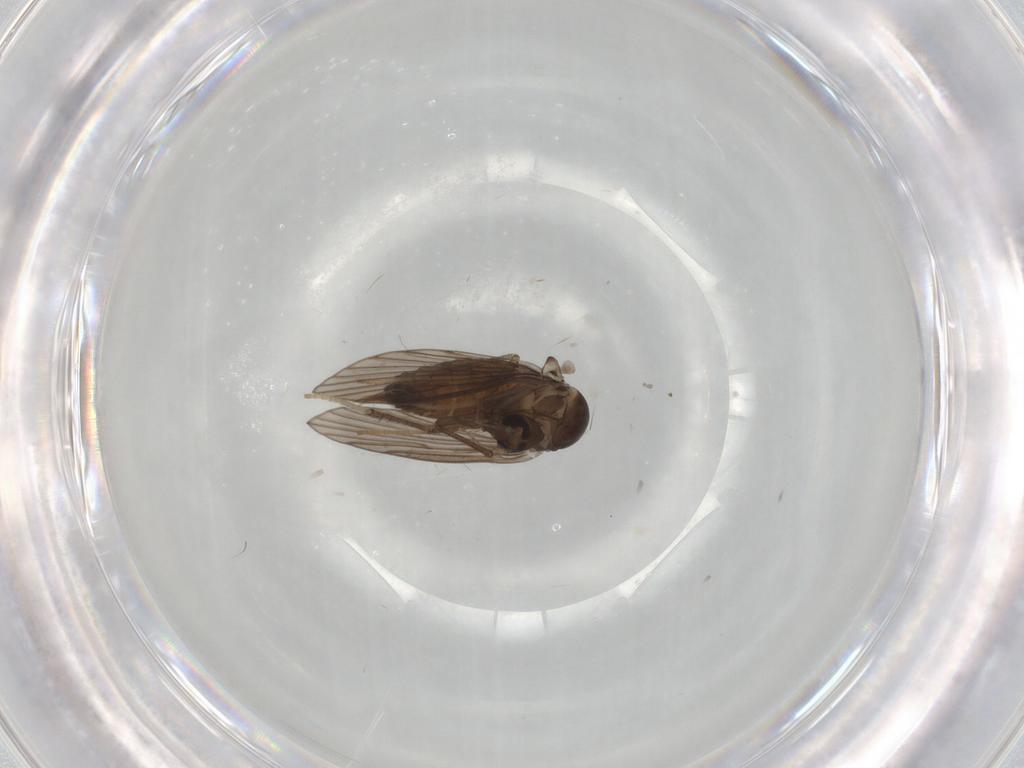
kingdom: Animalia
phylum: Arthropoda
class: Insecta
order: Diptera
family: Psychodidae
